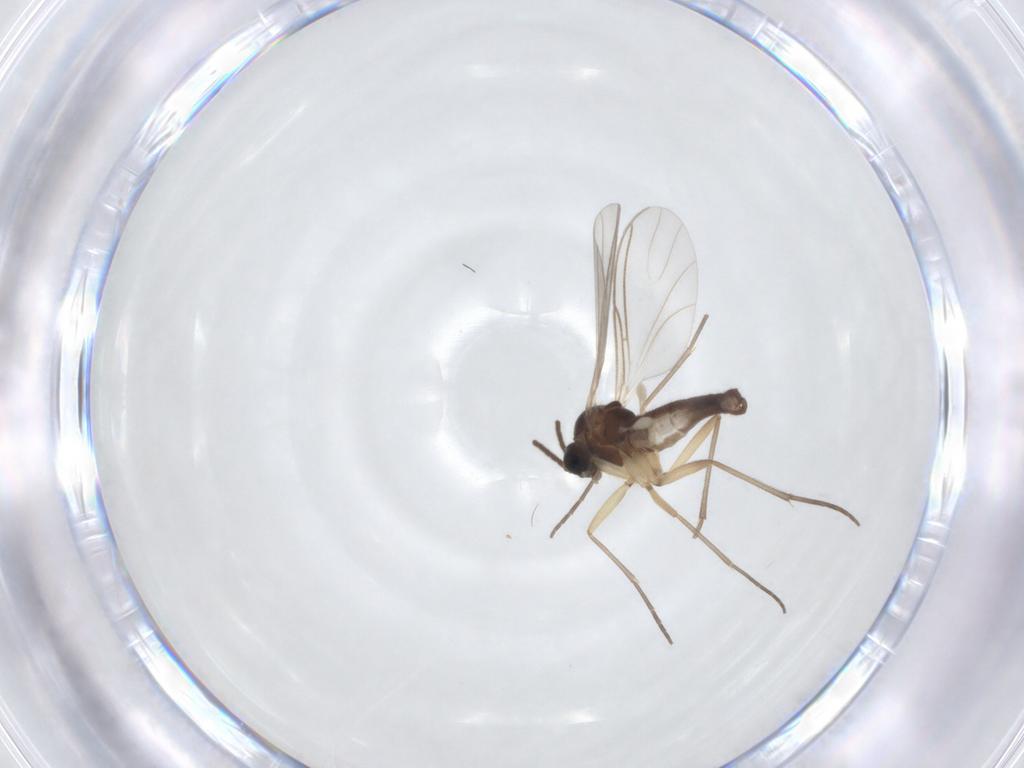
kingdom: Animalia
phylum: Arthropoda
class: Insecta
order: Diptera
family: Sciaridae
